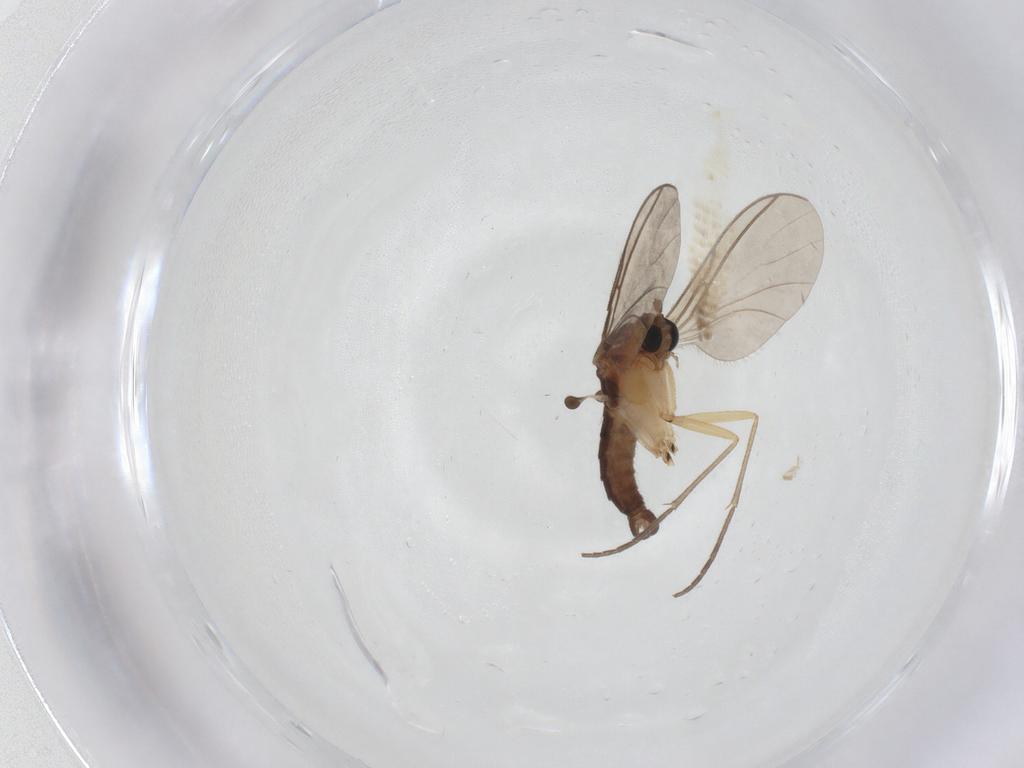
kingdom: Animalia
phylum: Arthropoda
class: Insecta
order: Diptera
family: Sciaridae
